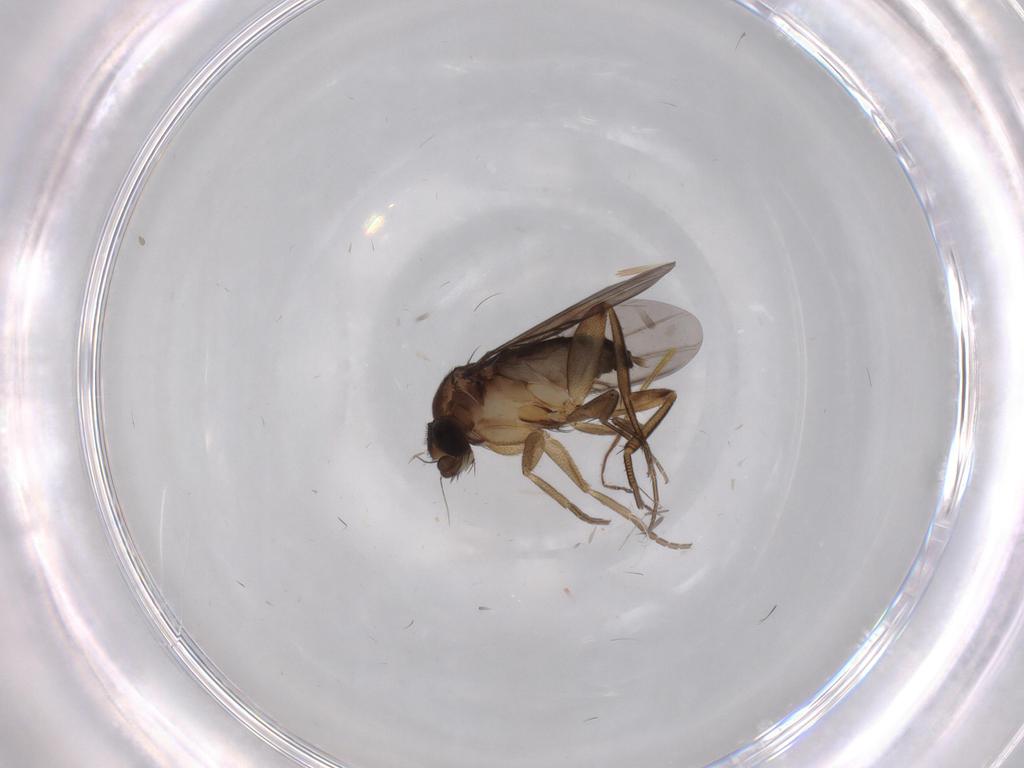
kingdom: Animalia
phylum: Arthropoda
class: Insecta
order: Diptera
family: Phoridae
